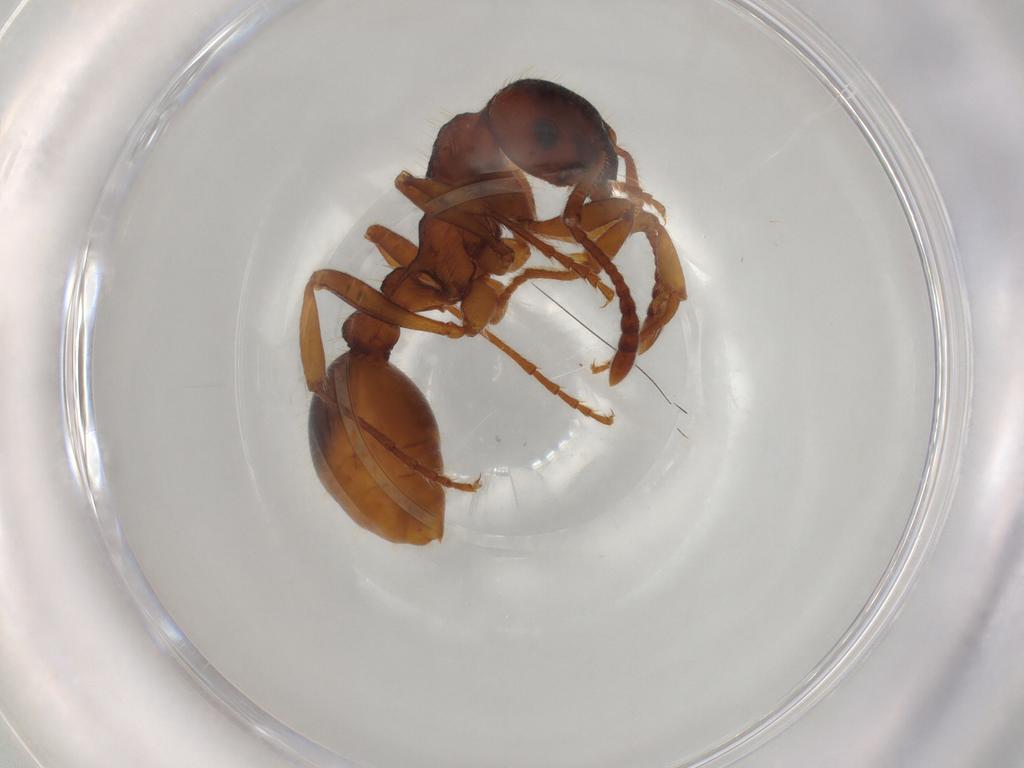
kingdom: Animalia
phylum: Arthropoda
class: Insecta
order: Hymenoptera
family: Formicidae
